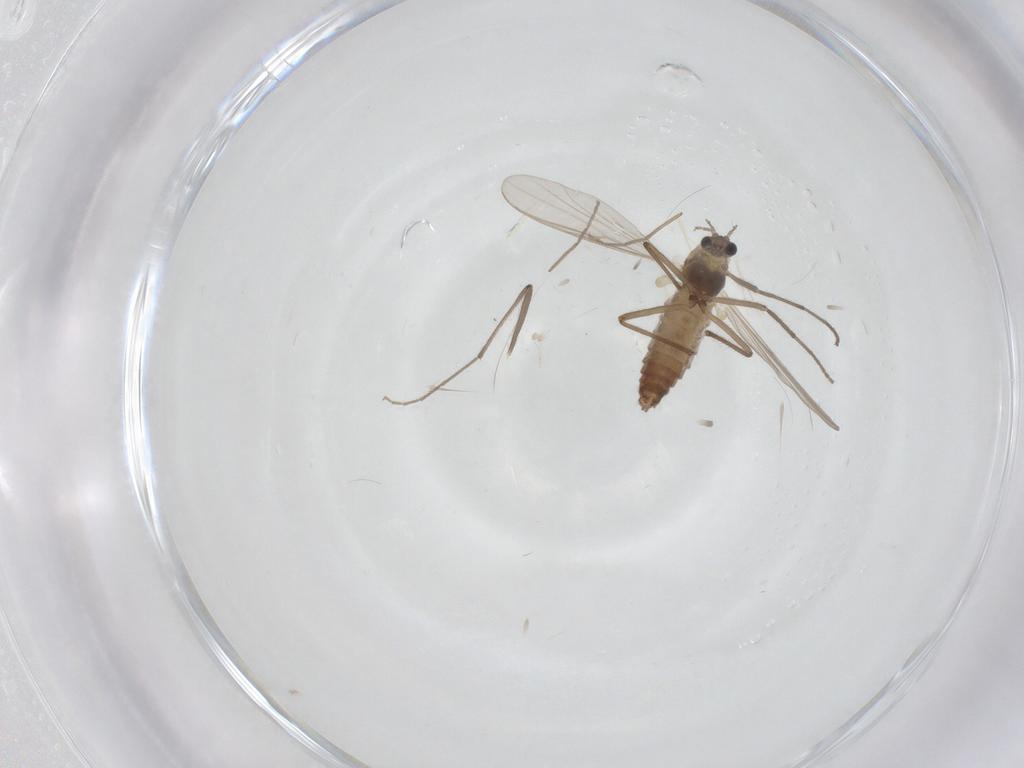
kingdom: Animalia
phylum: Arthropoda
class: Insecta
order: Diptera
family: Chironomidae
